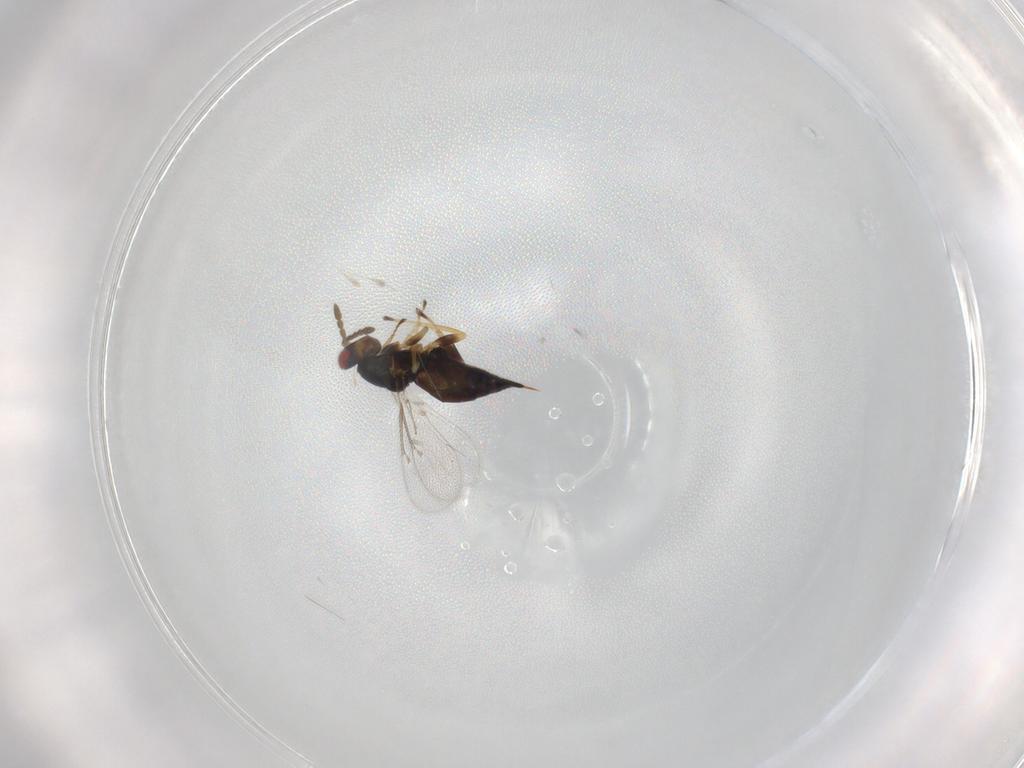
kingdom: Animalia
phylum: Arthropoda
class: Insecta
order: Hymenoptera
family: Eulophidae
